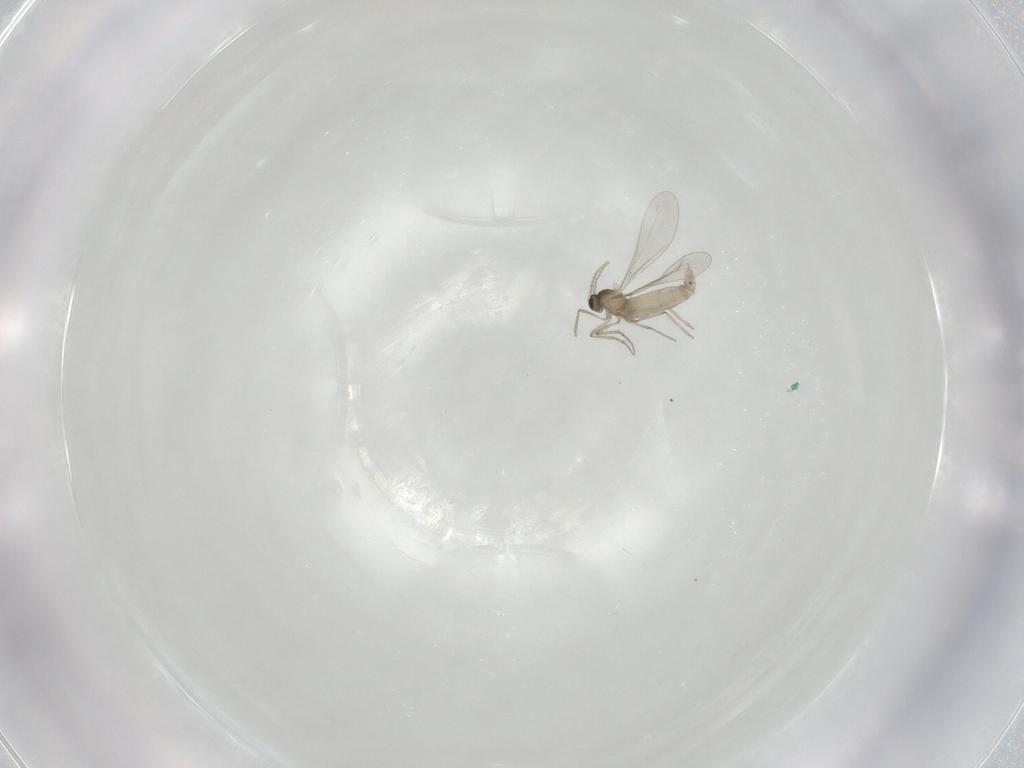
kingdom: Animalia
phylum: Arthropoda
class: Insecta
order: Diptera
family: Cecidomyiidae
